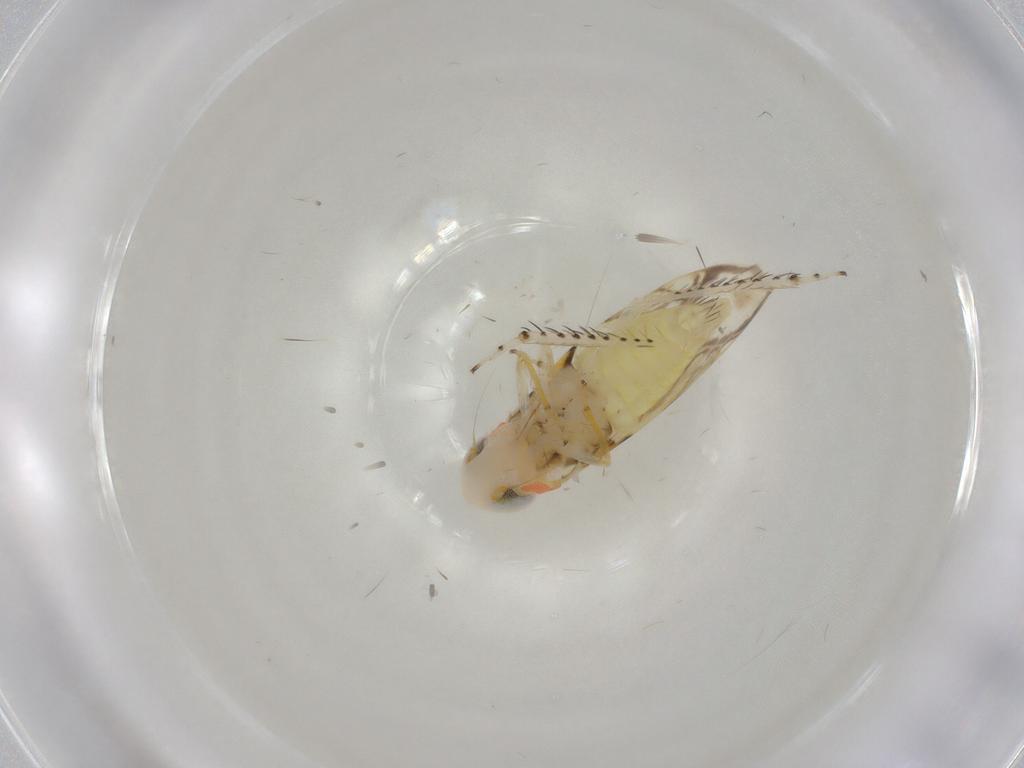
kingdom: Animalia
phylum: Arthropoda
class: Insecta
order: Hemiptera
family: Cicadellidae
